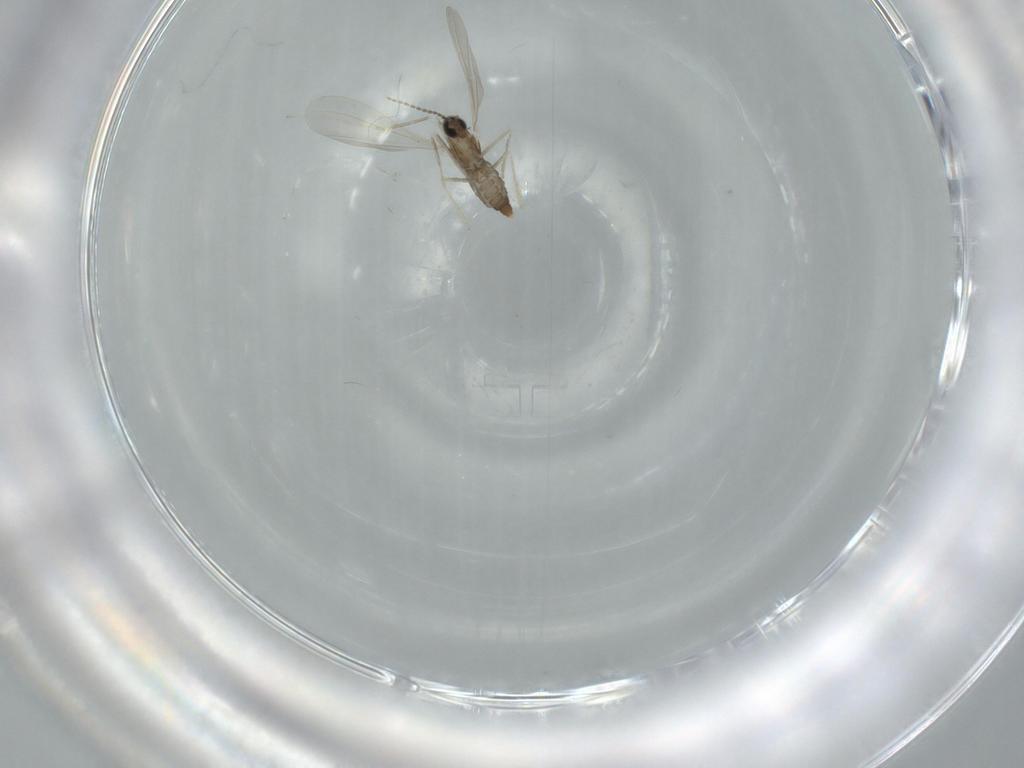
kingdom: Animalia
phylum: Arthropoda
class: Insecta
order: Diptera
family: Cecidomyiidae
